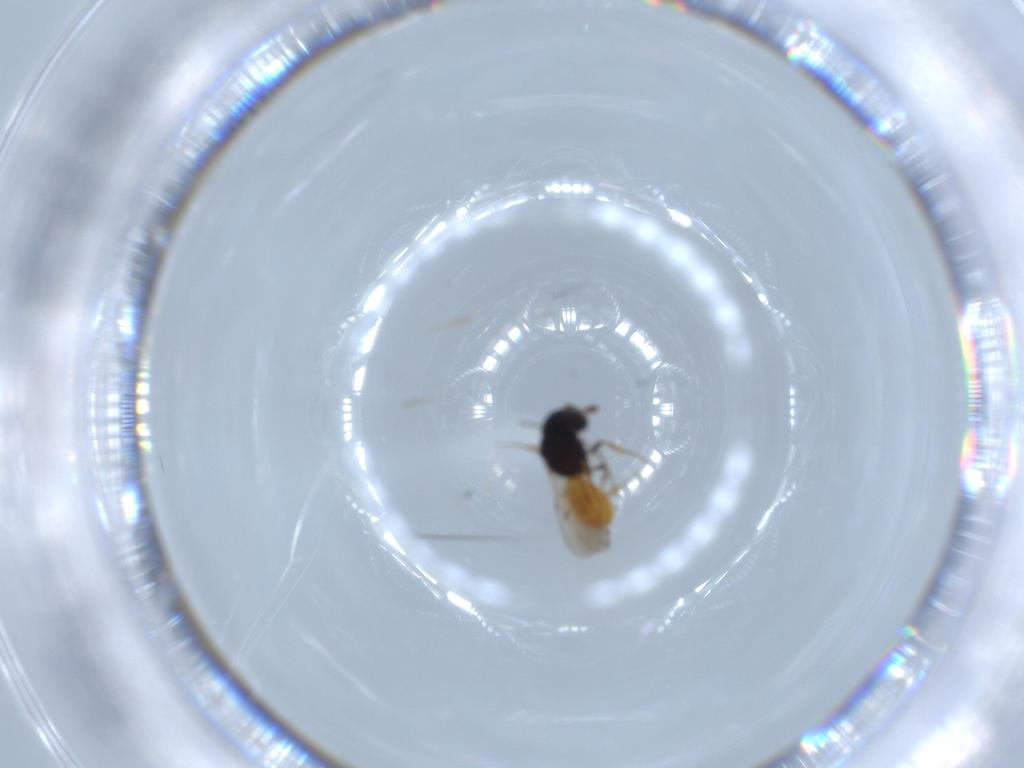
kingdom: Animalia
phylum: Arthropoda
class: Insecta
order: Hymenoptera
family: Scelionidae
